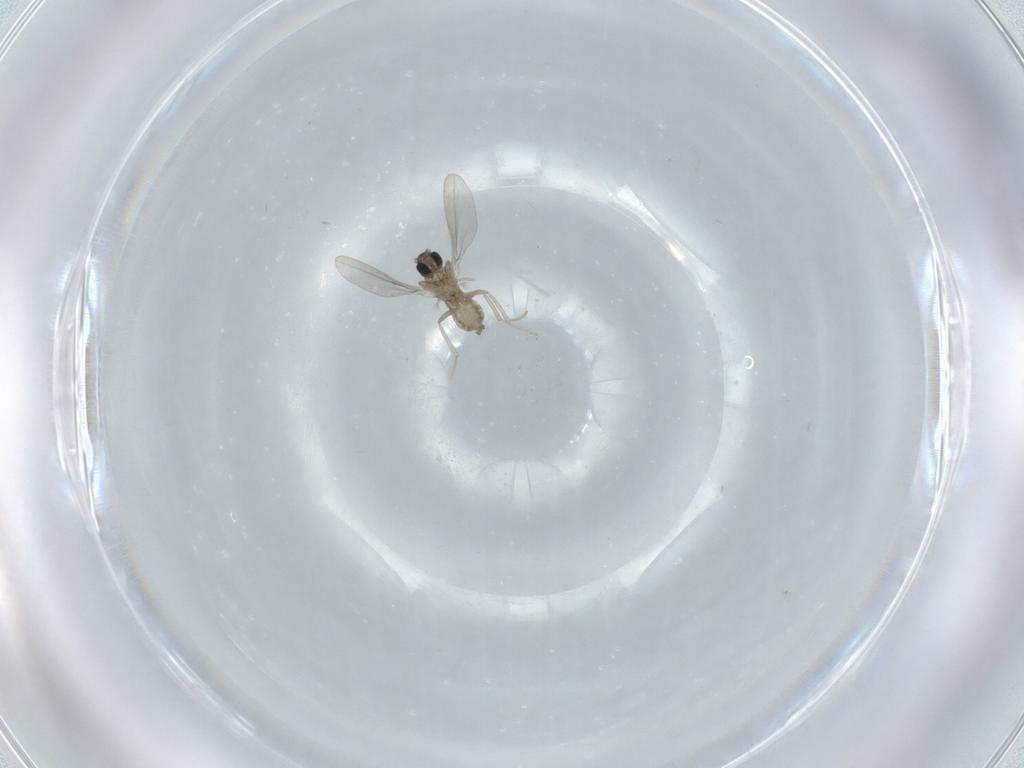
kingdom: Animalia
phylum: Arthropoda
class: Insecta
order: Diptera
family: Cecidomyiidae
